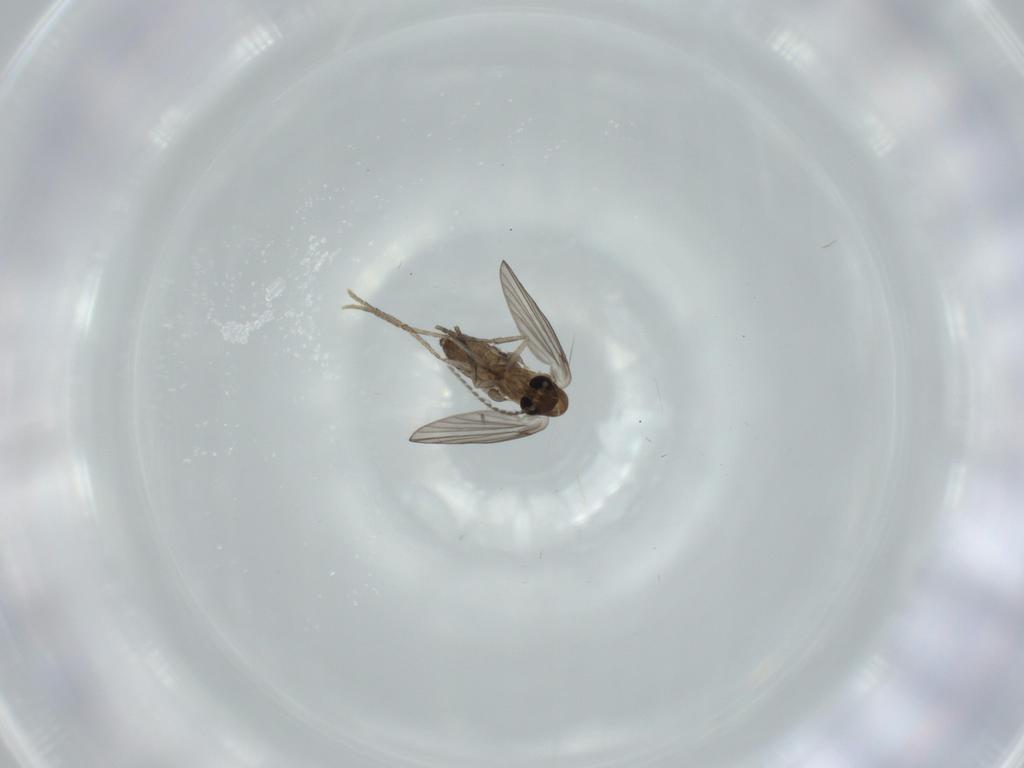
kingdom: Animalia
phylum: Arthropoda
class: Insecta
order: Diptera
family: Psychodidae
